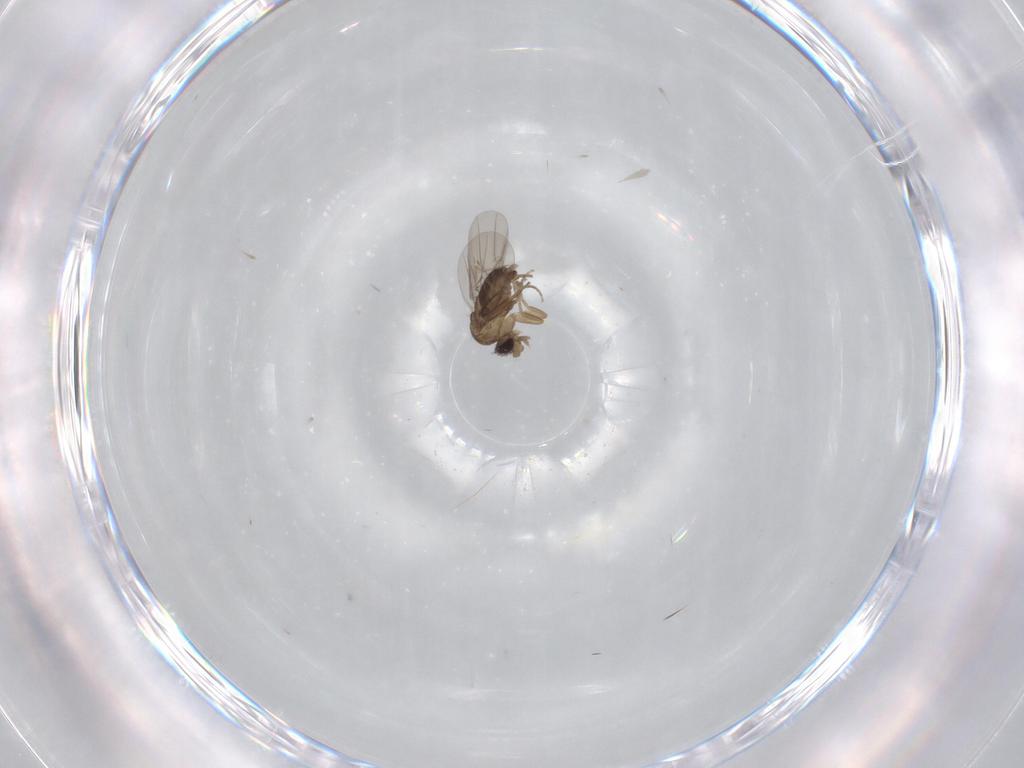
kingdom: Animalia
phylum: Arthropoda
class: Insecta
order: Diptera
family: Phoridae
